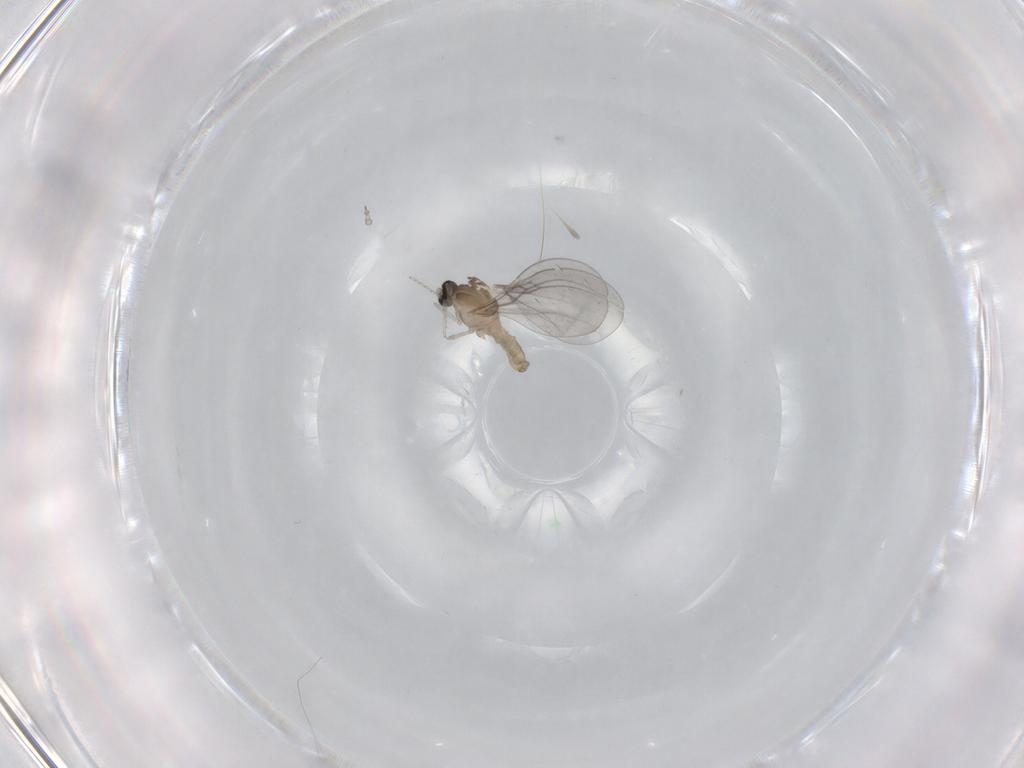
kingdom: Animalia
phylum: Arthropoda
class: Insecta
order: Diptera
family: Cecidomyiidae
